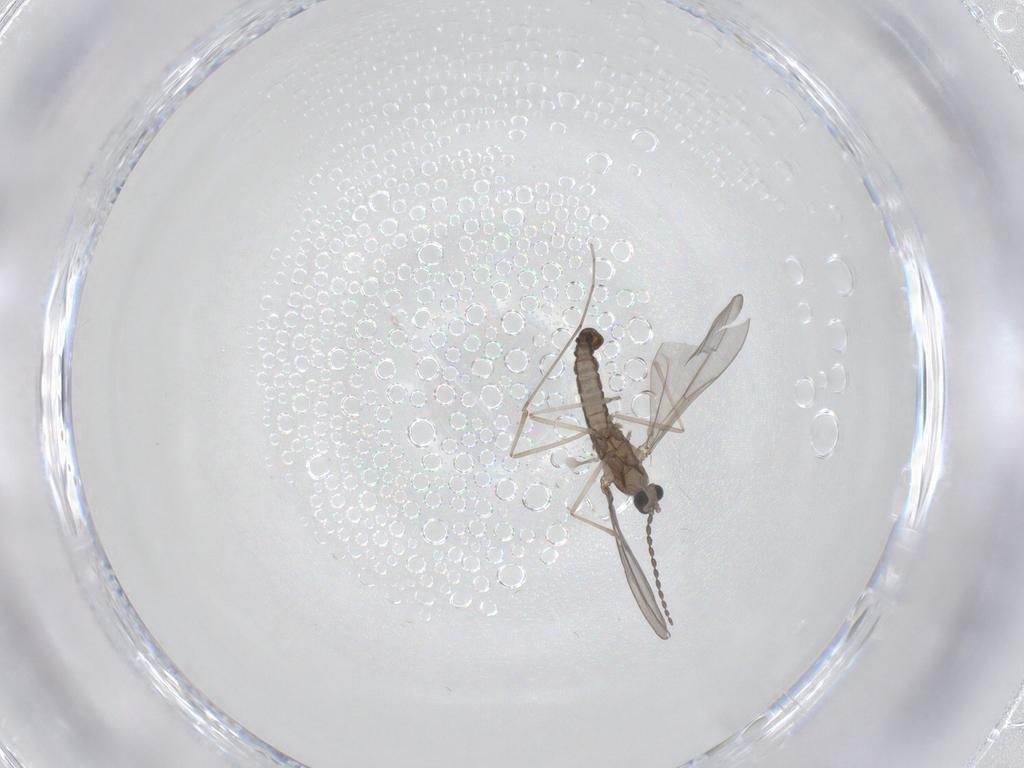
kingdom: Animalia
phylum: Arthropoda
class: Insecta
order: Diptera
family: Cecidomyiidae
